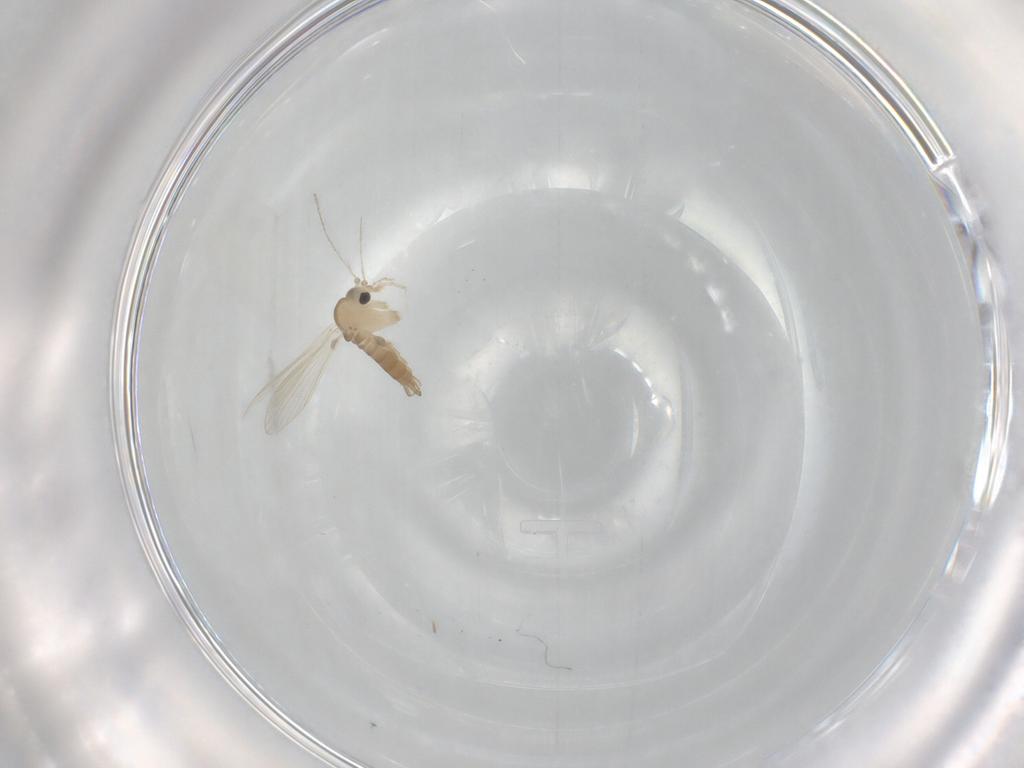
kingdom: Animalia
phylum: Arthropoda
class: Insecta
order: Diptera
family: Psychodidae
